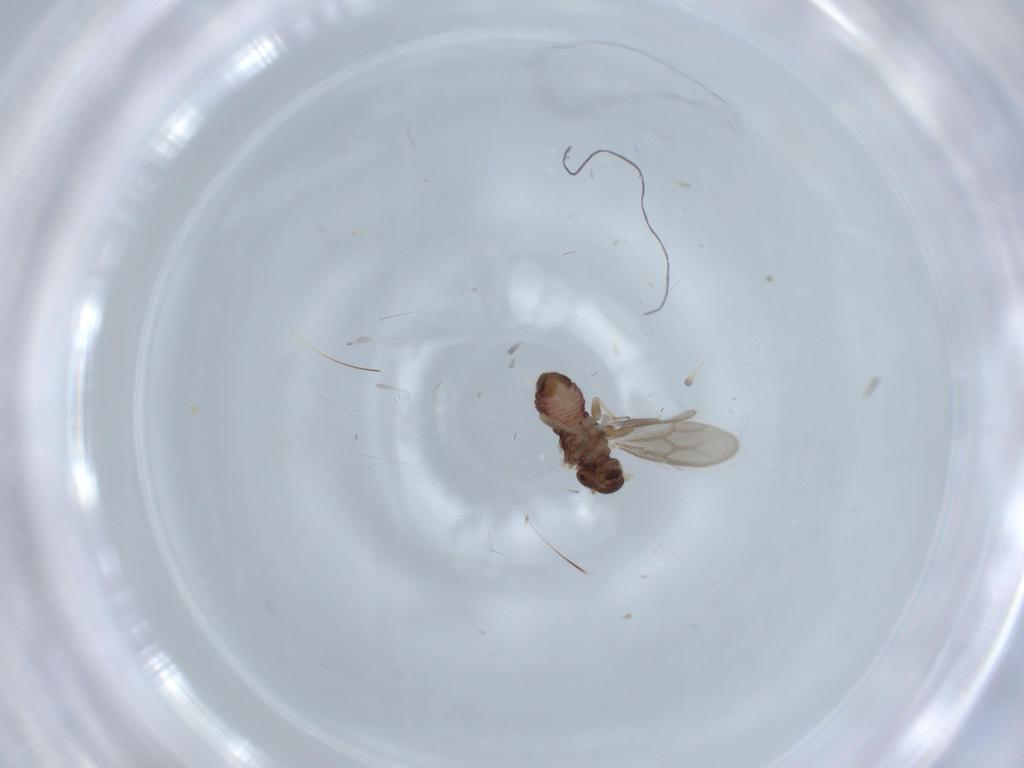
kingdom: Animalia
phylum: Arthropoda
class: Insecta
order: Psocodea
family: Archipsocidae
